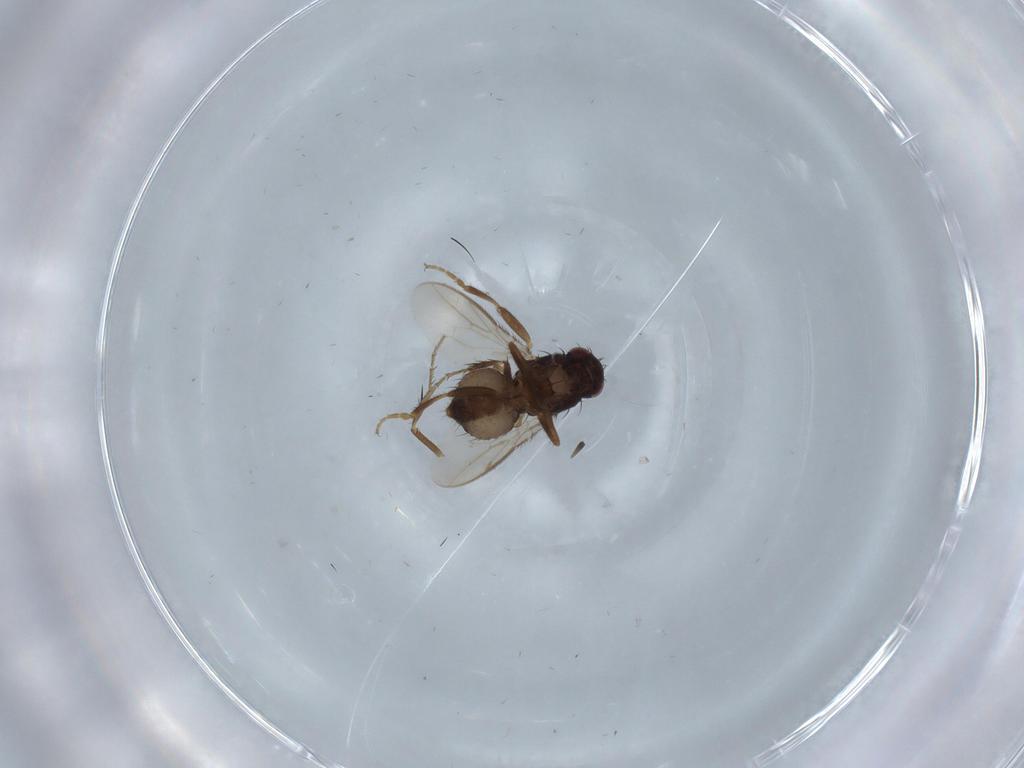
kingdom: Animalia
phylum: Arthropoda
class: Insecta
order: Diptera
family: Sphaeroceridae
